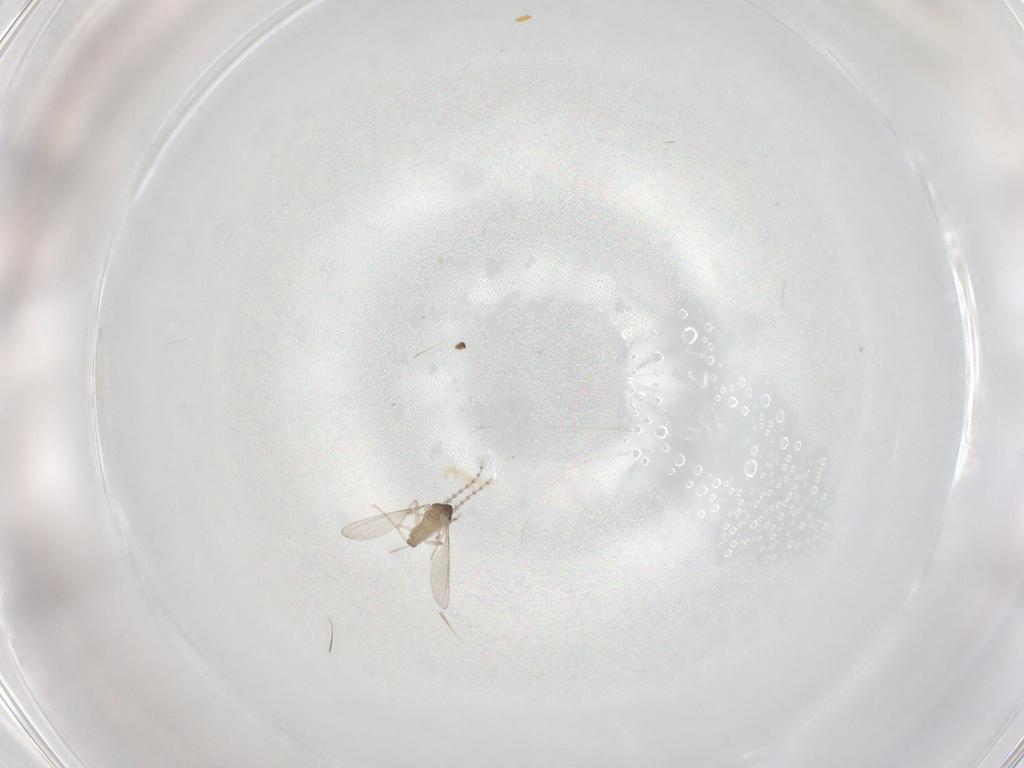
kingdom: Animalia
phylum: Arthropoda
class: Insecta
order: Diptera
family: Cecidomyiidae
